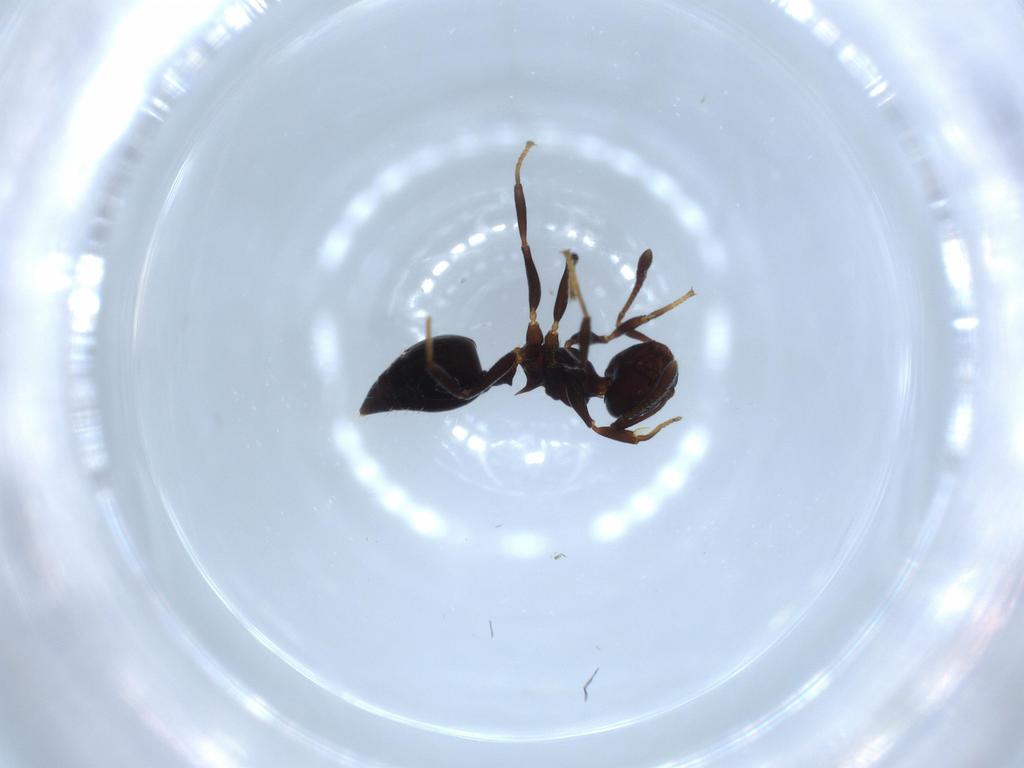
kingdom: Animalia
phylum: Arthropoda
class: Insecta
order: Hymenoptera
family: Formicidae
